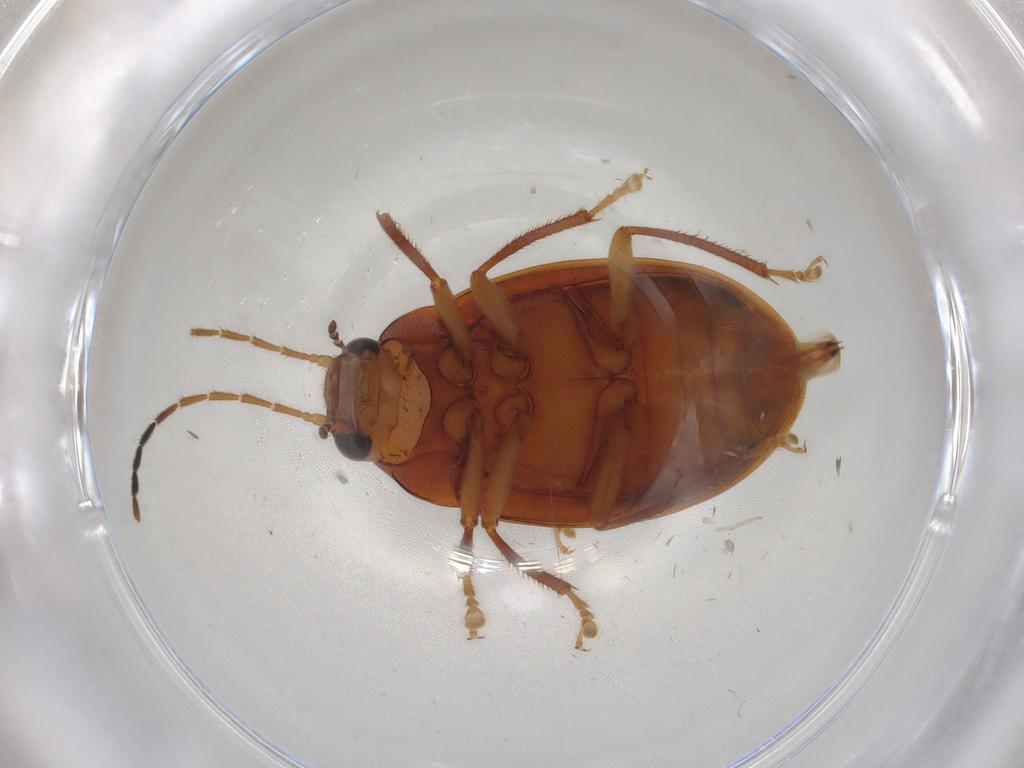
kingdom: Animalia
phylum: Arthropoda
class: Insecta
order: Coleoptera
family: Ptilodactylidae
